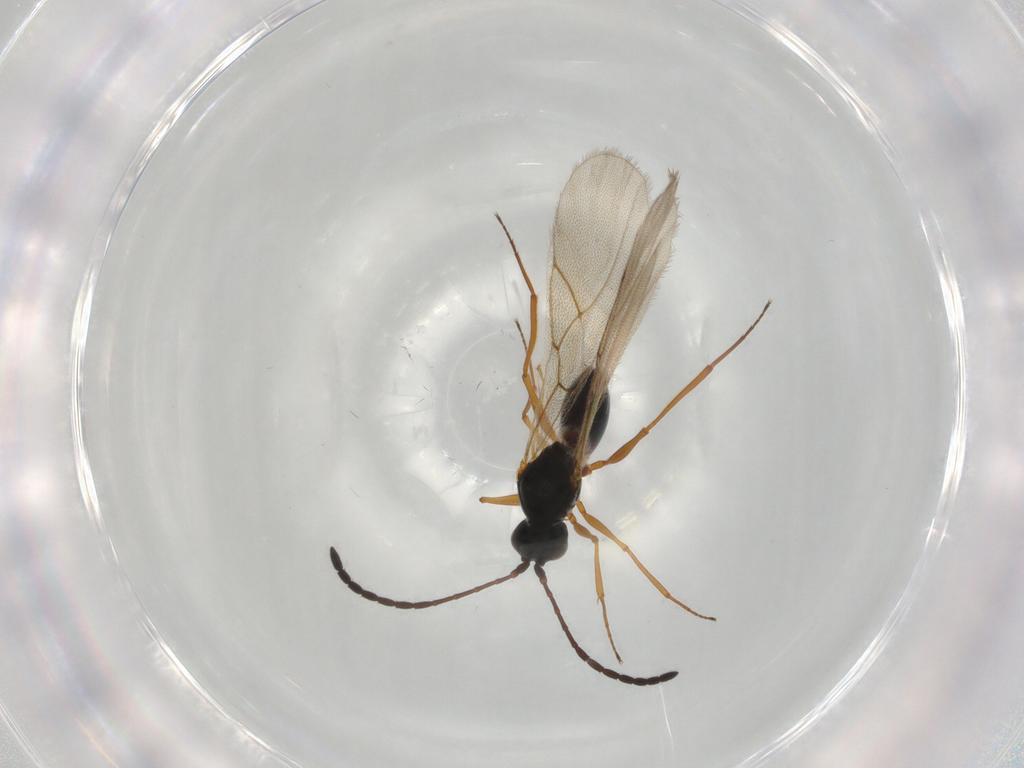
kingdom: Animalia
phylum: Arthropoda
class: Insecta
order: Hymenoptera
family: Figitidae
